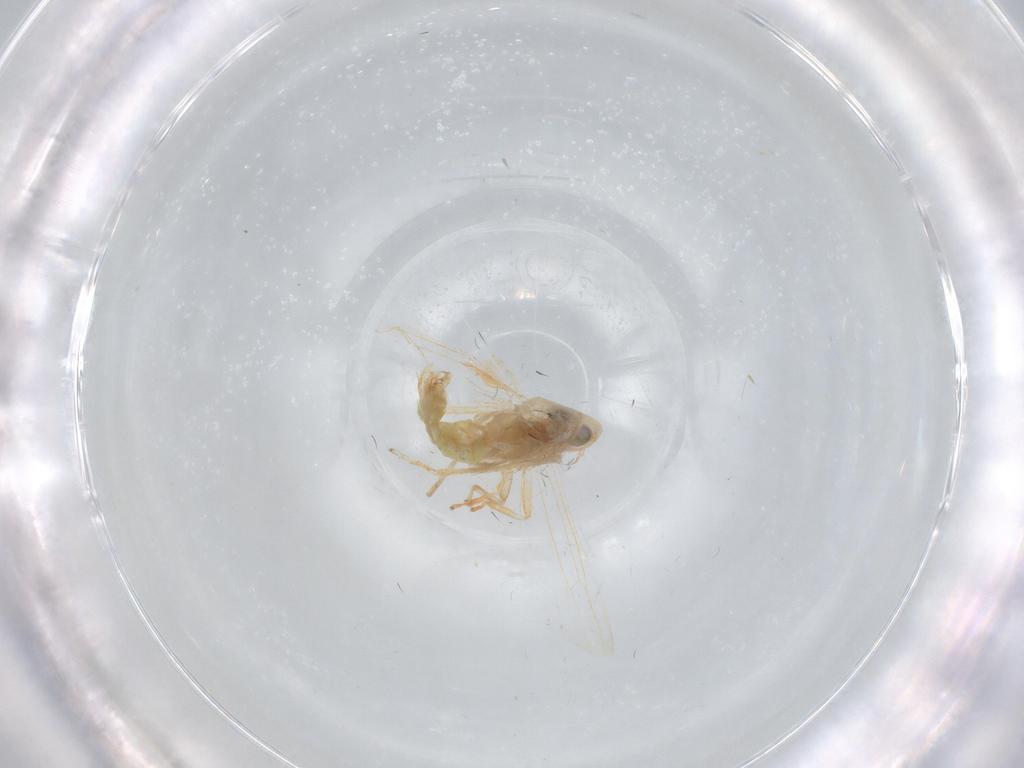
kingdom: Animalia
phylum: Arthropoda
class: Insecta
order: Hemiptera
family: Cicadellidae
